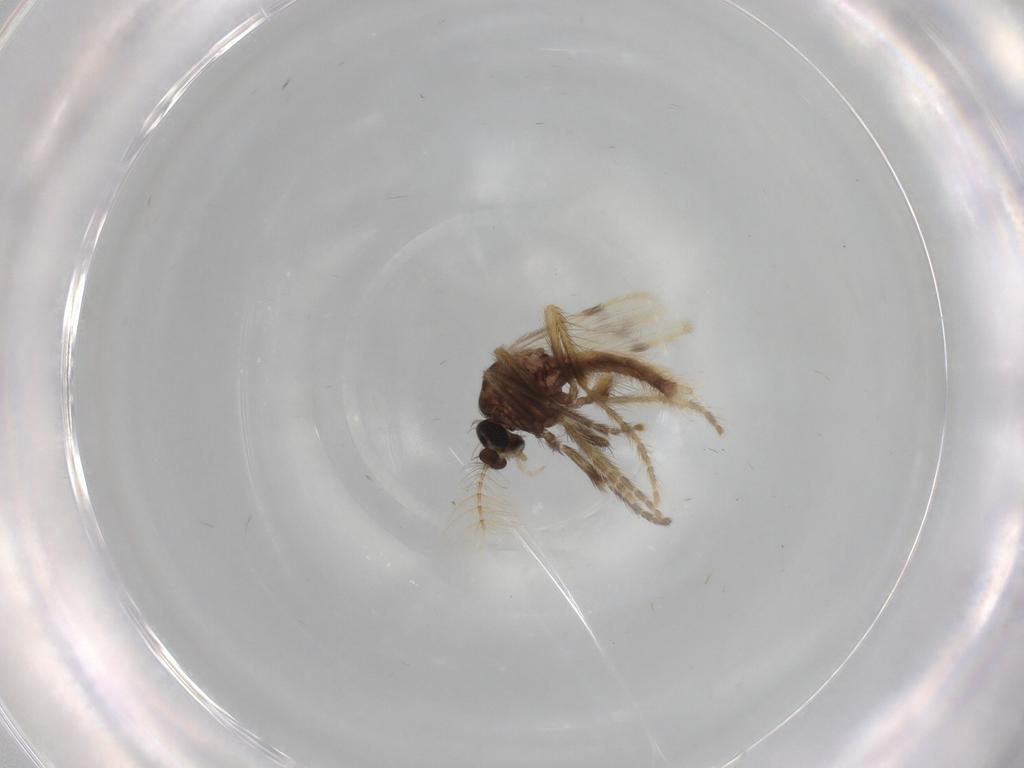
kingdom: Animalia
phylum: Arthropoda
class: Insecta
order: Diptera
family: Corethrellidae
